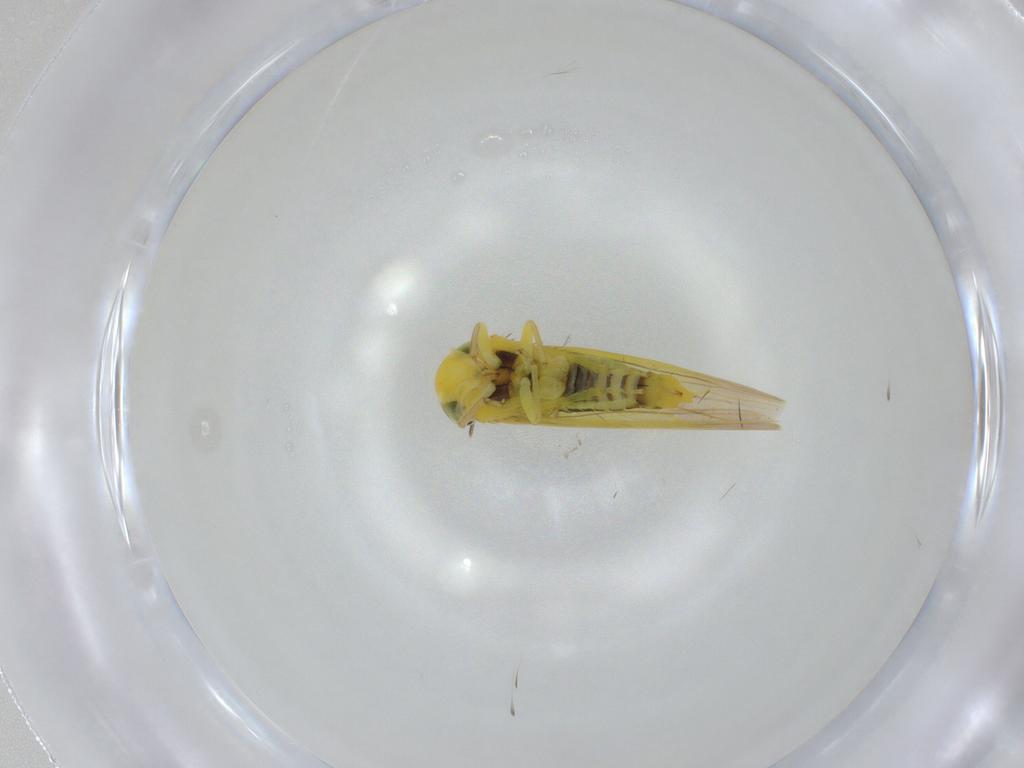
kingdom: Animalia
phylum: Arthropoda
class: Insecta
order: Hemiptera
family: Cicadellidae
